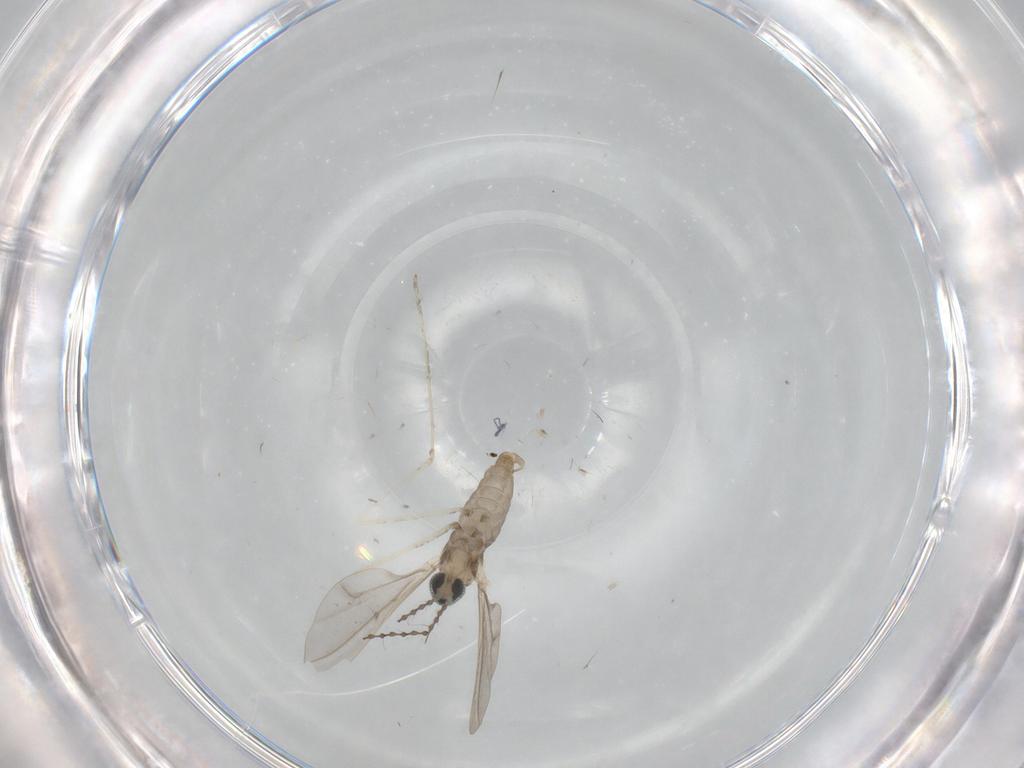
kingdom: Animalia
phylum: Arthropoda
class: Insecta
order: Diptera
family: Cecidomyiidae
